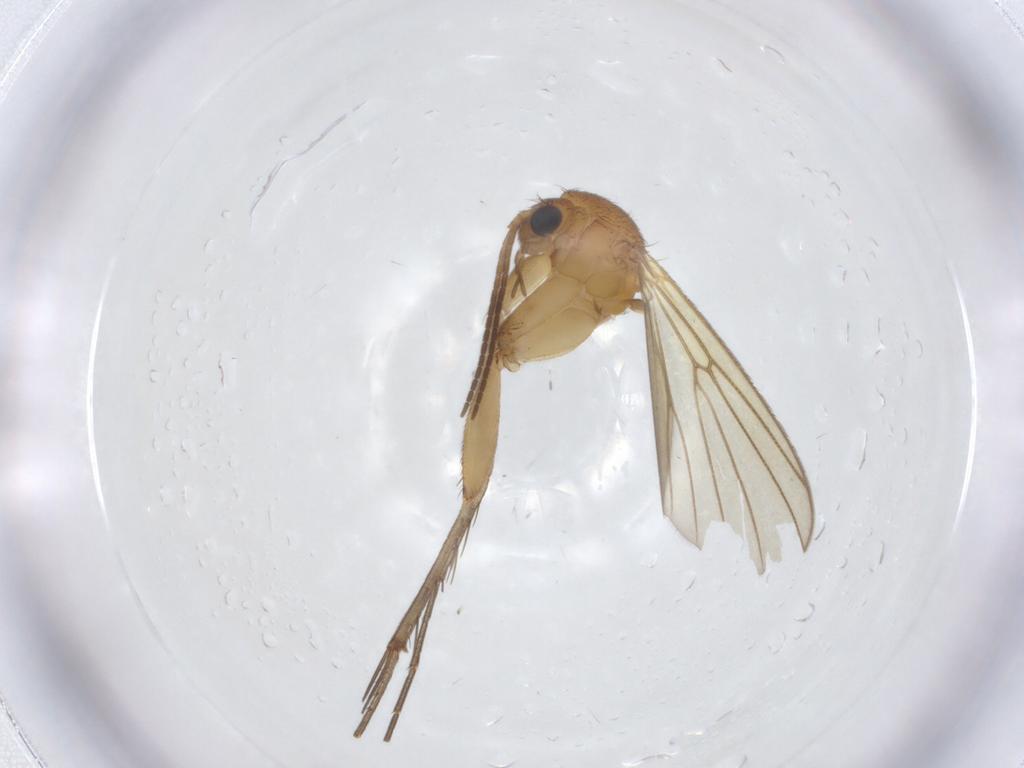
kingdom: Animalia
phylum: Arthropoda
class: Insecta
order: Diptera
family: Mycetophilidae
